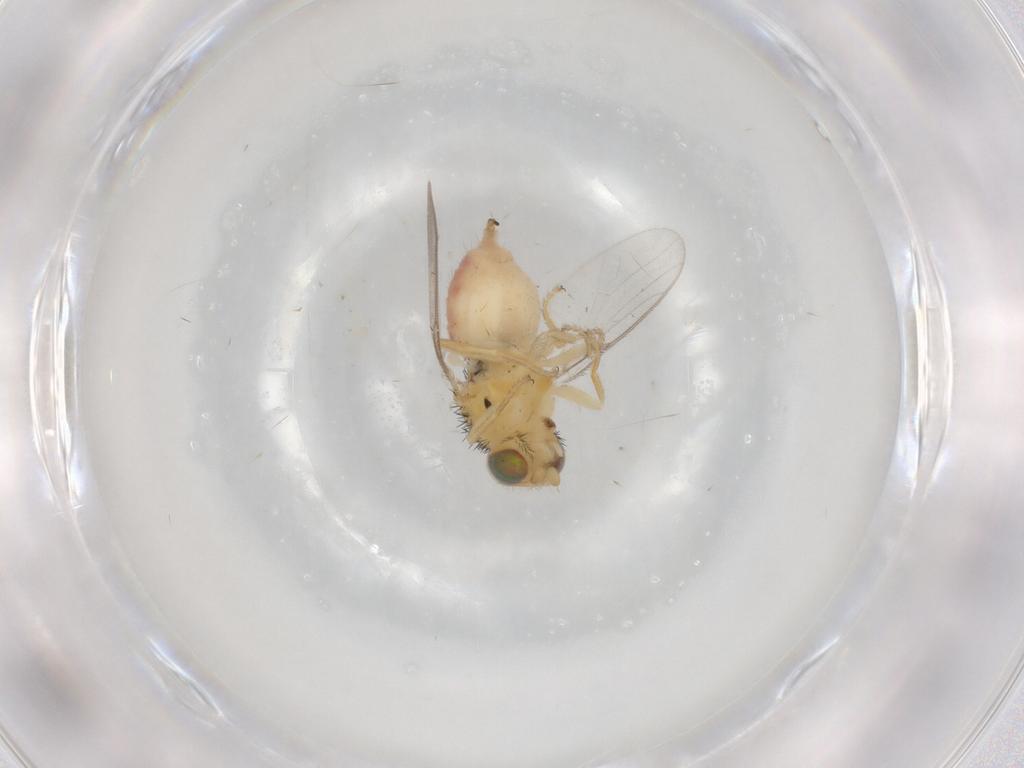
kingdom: Animalia
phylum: Arthropoda
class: Insecta
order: Diptera
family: Chloropidae
